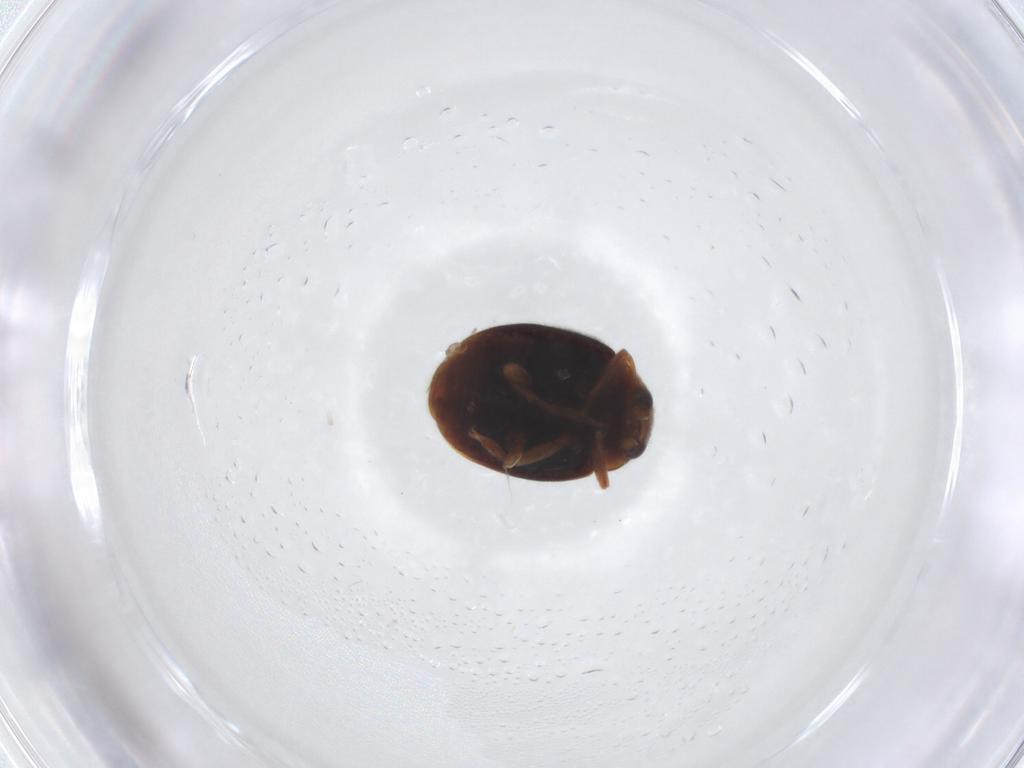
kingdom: Animalia
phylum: Arthropoda
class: Insecta
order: Coleoptera
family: Coccinellidae
